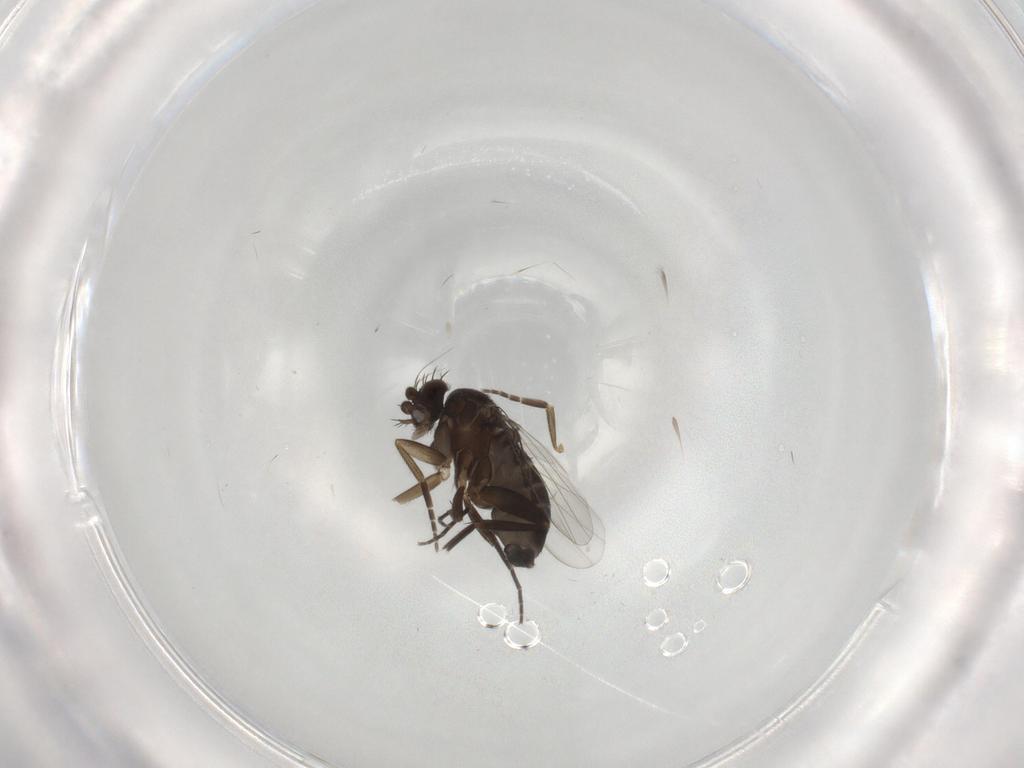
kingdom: Animalia
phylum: Arthropoda
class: Insecta
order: Diptera
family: Phoridae
